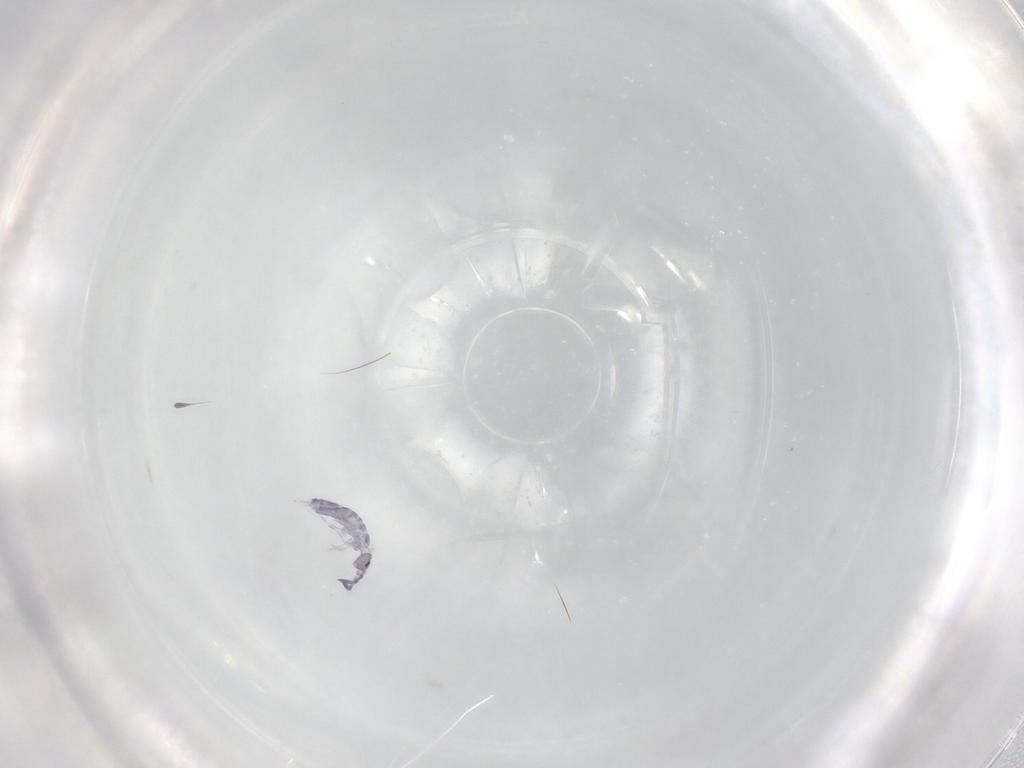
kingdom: Animalia
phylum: Arthropoda
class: Collembola
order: Entomobryomorpha
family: Entomobryidae
